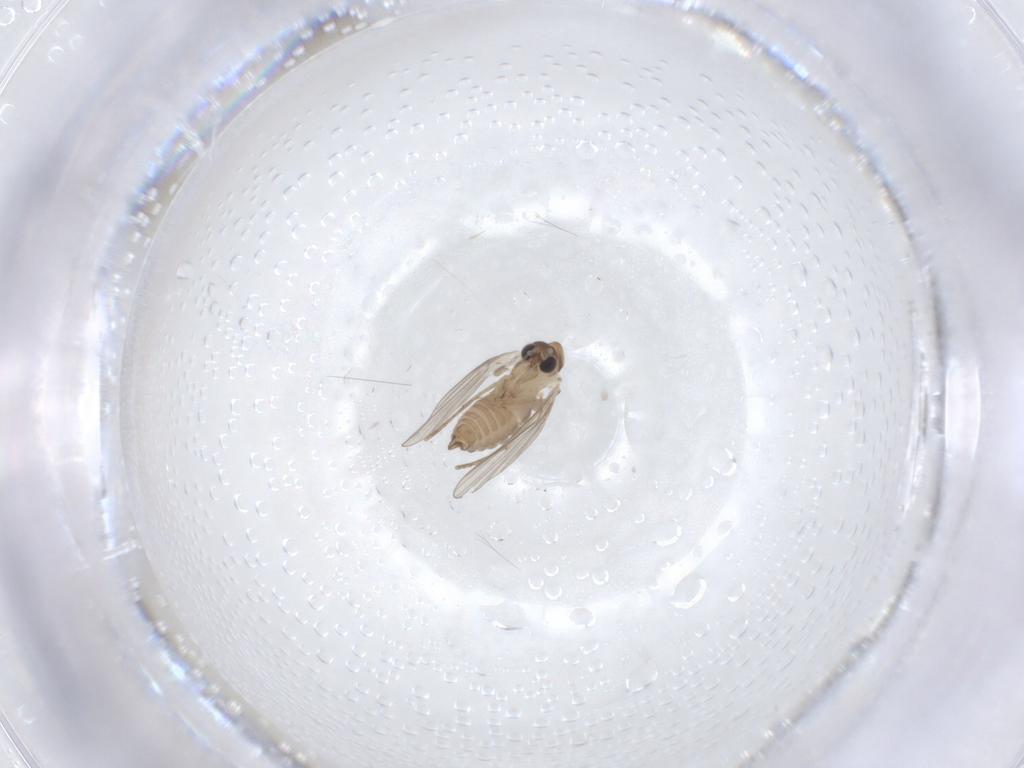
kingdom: Animalia
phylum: Arthropoda
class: Insecta
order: Diptera
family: Psychodidae
